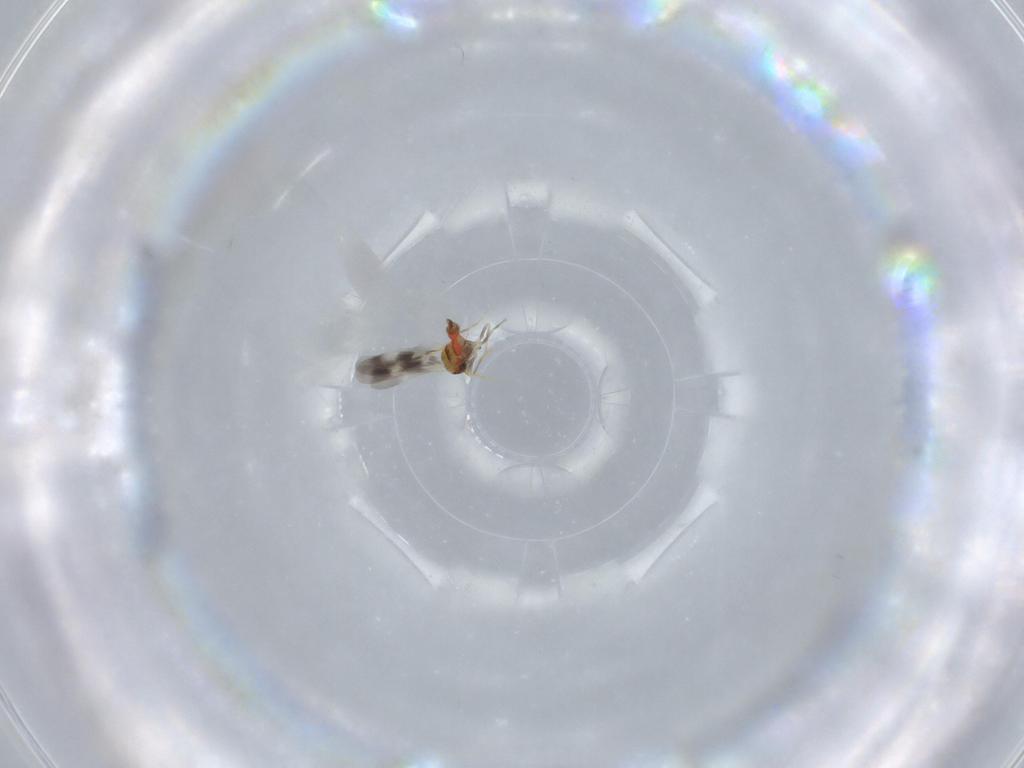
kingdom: Animalia
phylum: Arthropoda
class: Insecta
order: Hemiptera
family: Aleyrodidae
